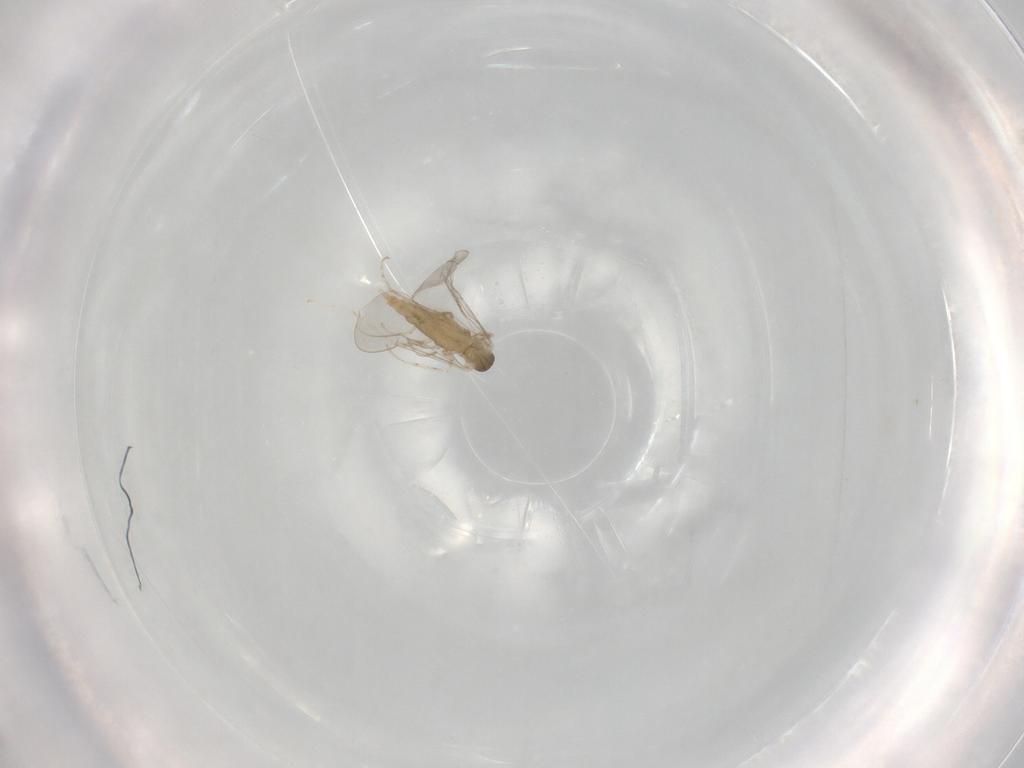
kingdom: Animalia
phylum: Arthropoda
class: Insecta
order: Diptera
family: Cecidomyiidae
